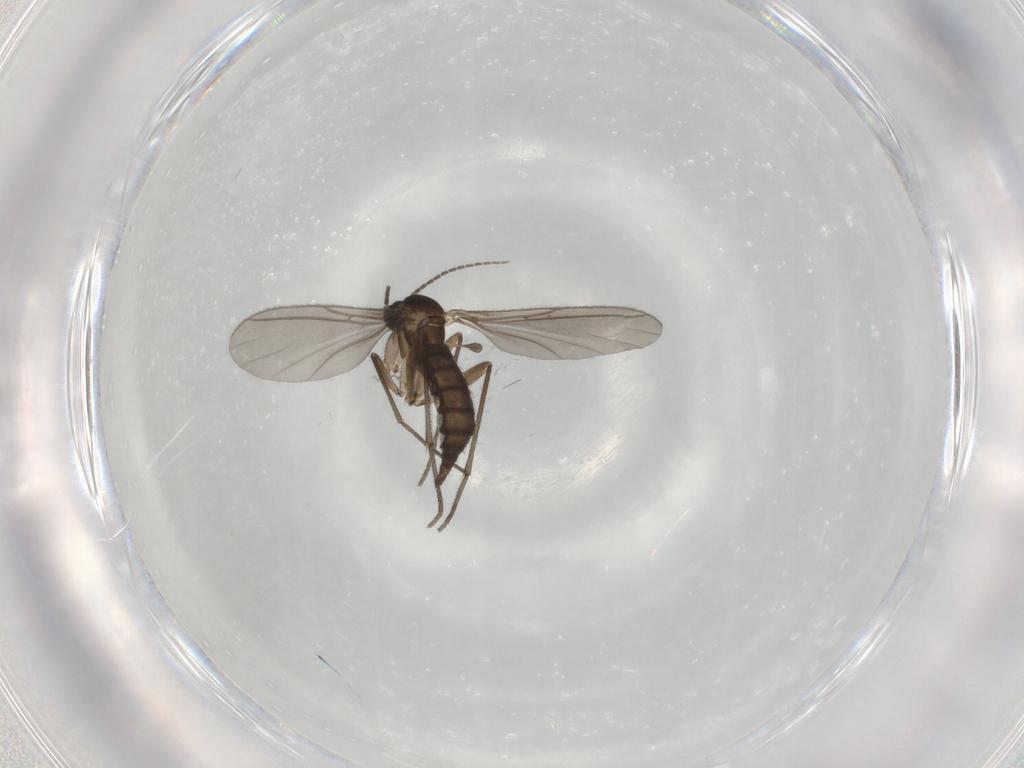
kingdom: Animalia
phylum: Arthropoda
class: Insecta
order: Diptera
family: Sciaridae
